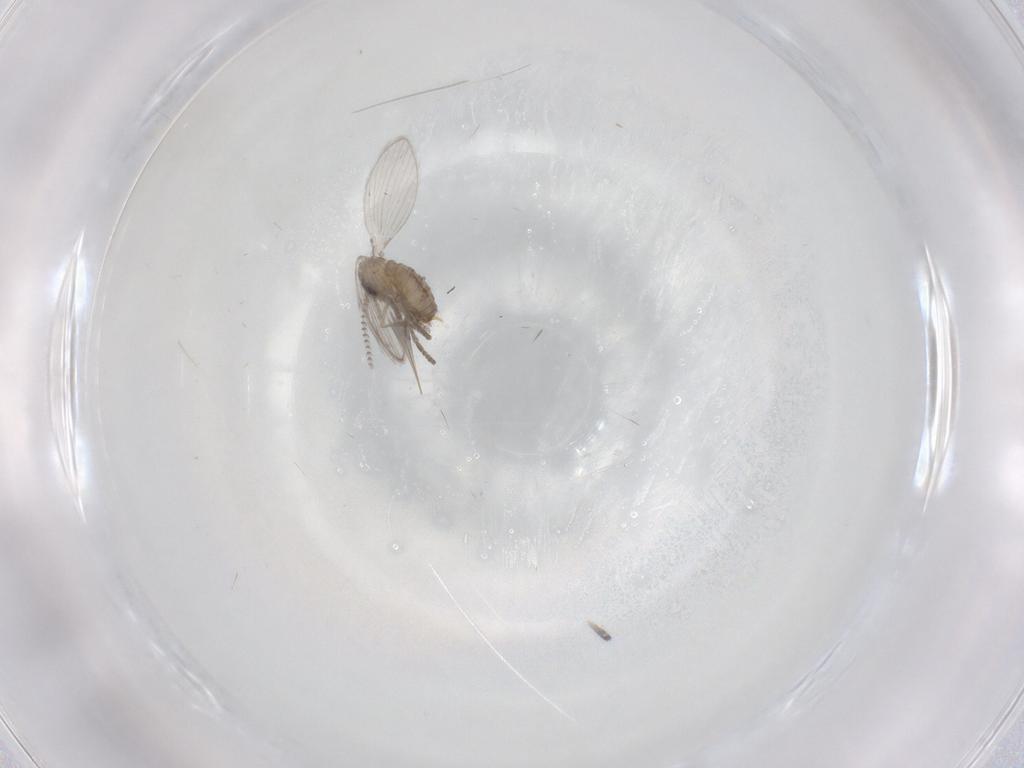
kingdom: Animalia
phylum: Arthropoda
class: Insecta
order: Diptera
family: Psychodidae
